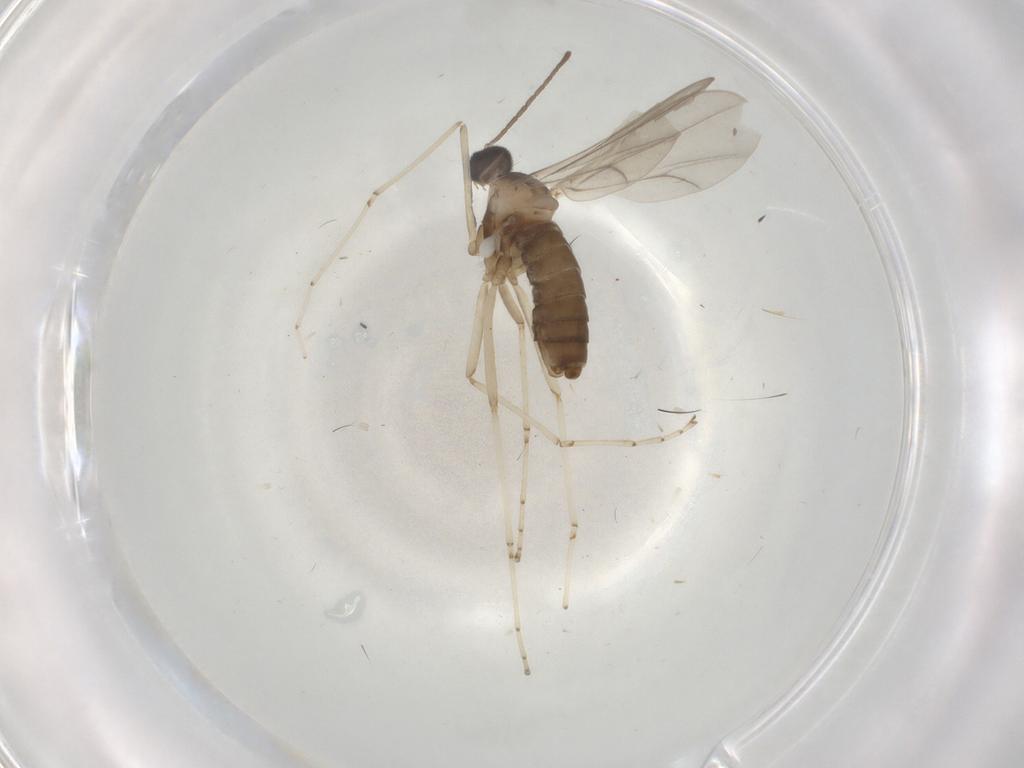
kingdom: Animalia
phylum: Arthropoda
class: Insecta
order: Diptera
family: Cecidomyiidae
